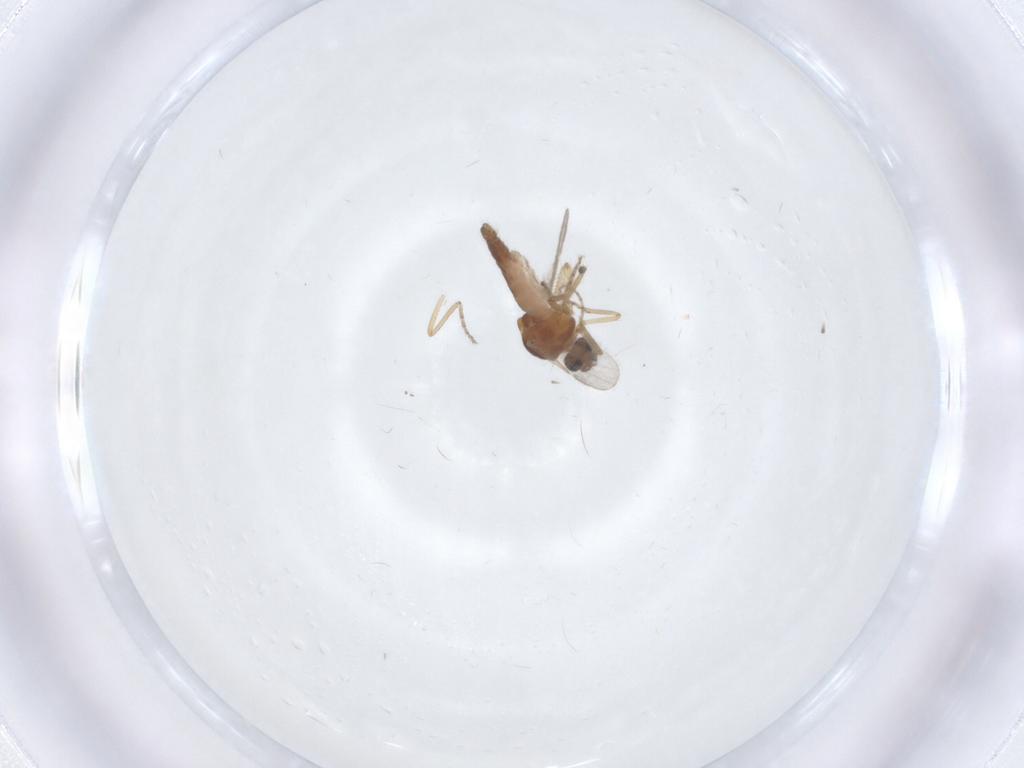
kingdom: Animalia
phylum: Arthropoda
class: Insecta
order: Diptera
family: Ceratopogonidae
